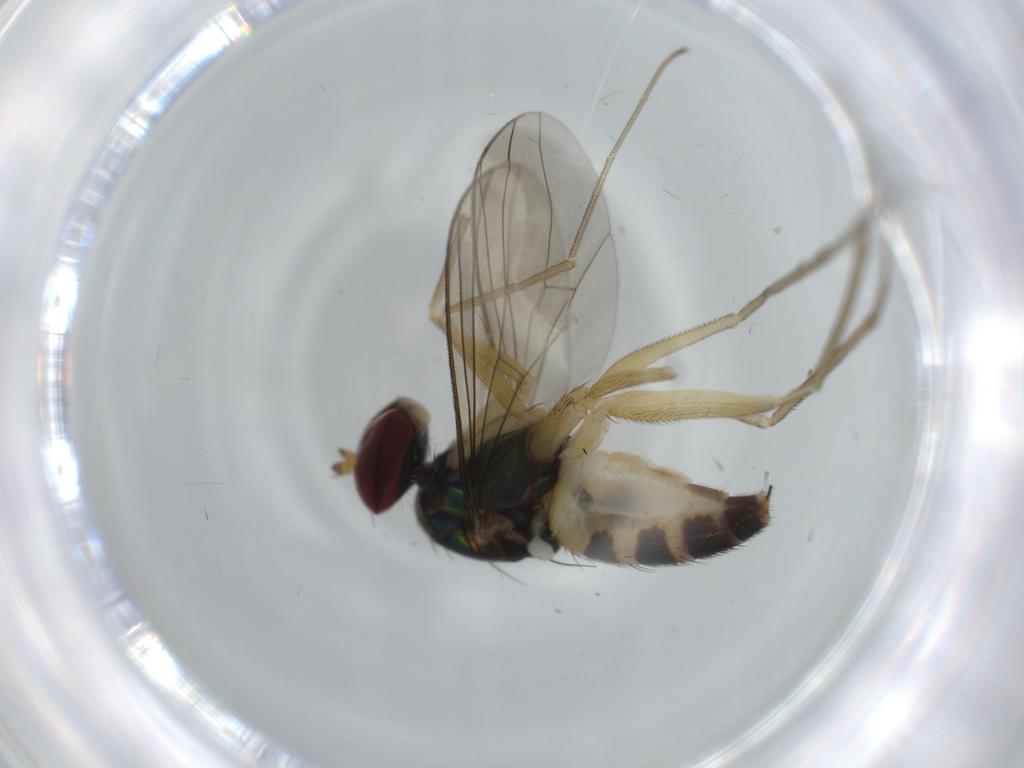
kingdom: Animalia
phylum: Arthropoda
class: Insecta
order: Diptera
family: Dolichopodidae
